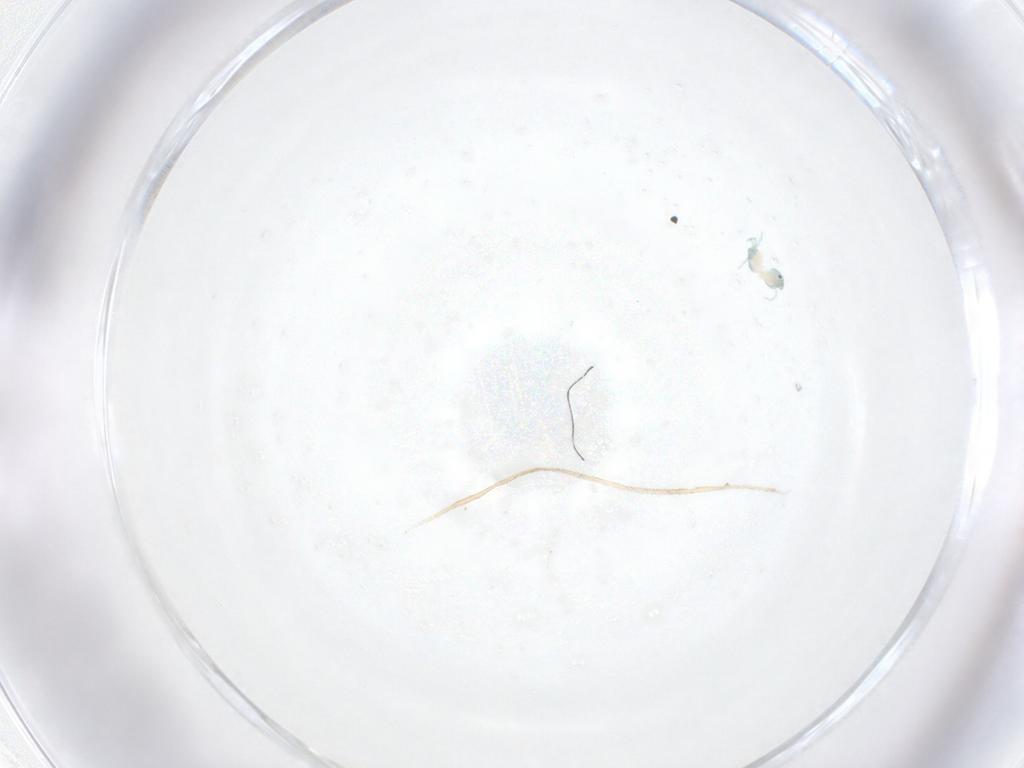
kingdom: Animalia
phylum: Arthropoda
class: Arachnida
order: Trombidiformes
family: Arrenuridae
